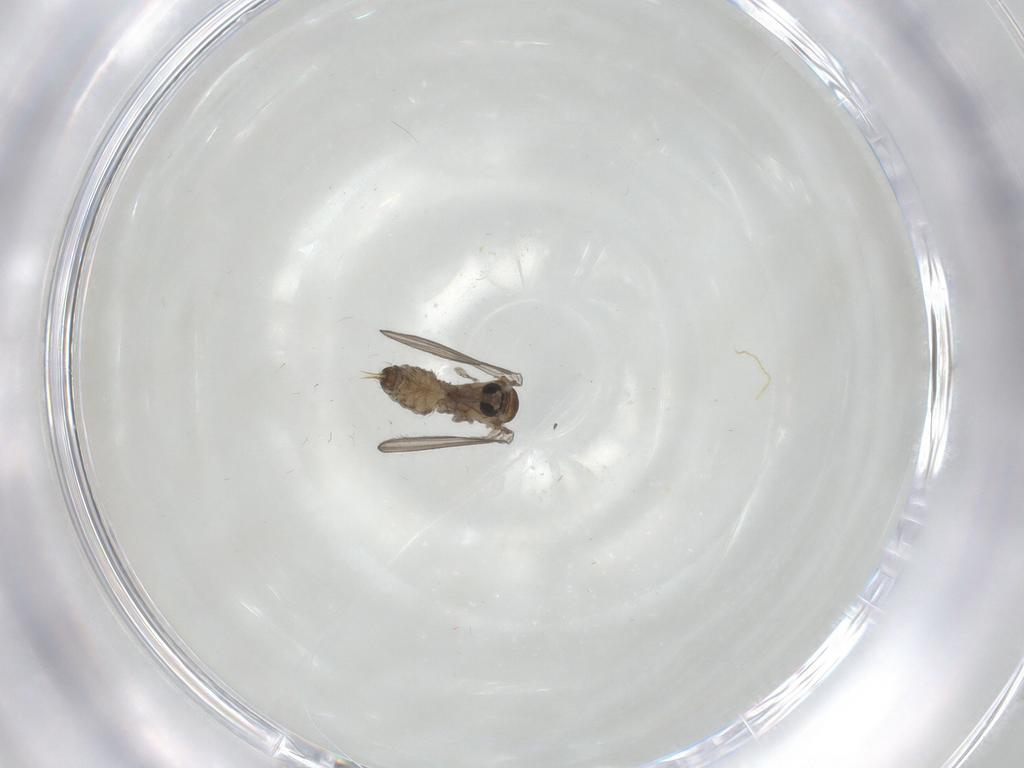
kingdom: Animalia
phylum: Arthropoda
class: Insecta
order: Diptera
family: Psychodidae
